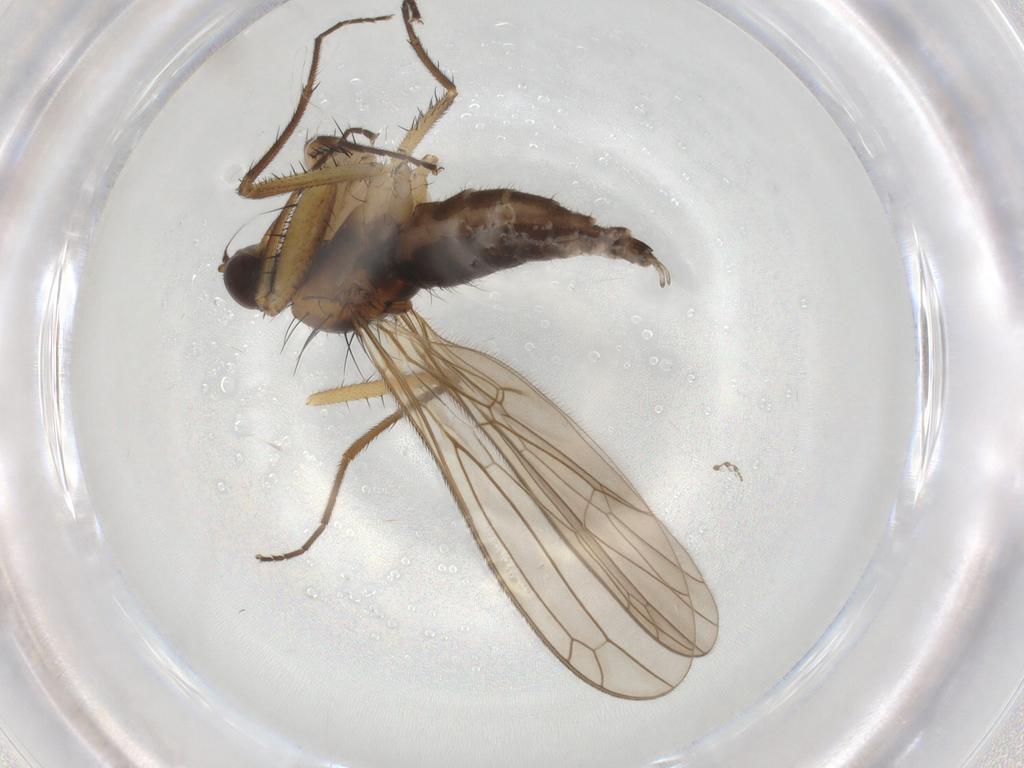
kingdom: Animalia
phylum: Arthropoda
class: Insecta
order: Diptera
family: Empididae
